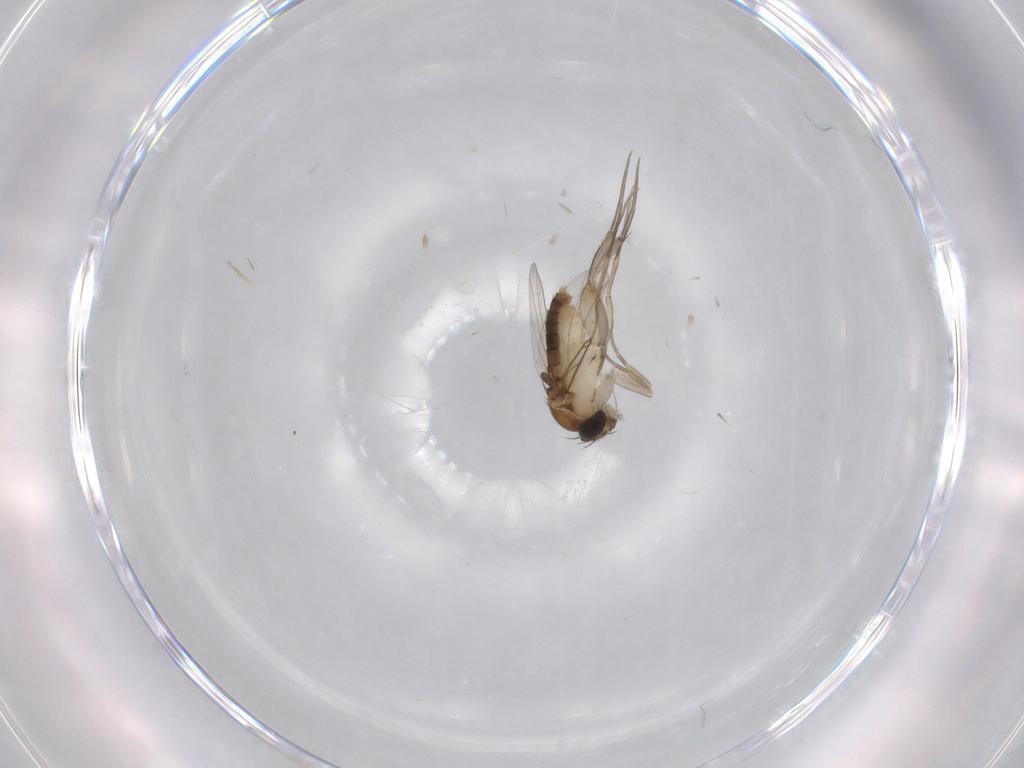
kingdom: Animalia
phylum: Arthropoda
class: Insecta
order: Diptera
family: Phoridae
